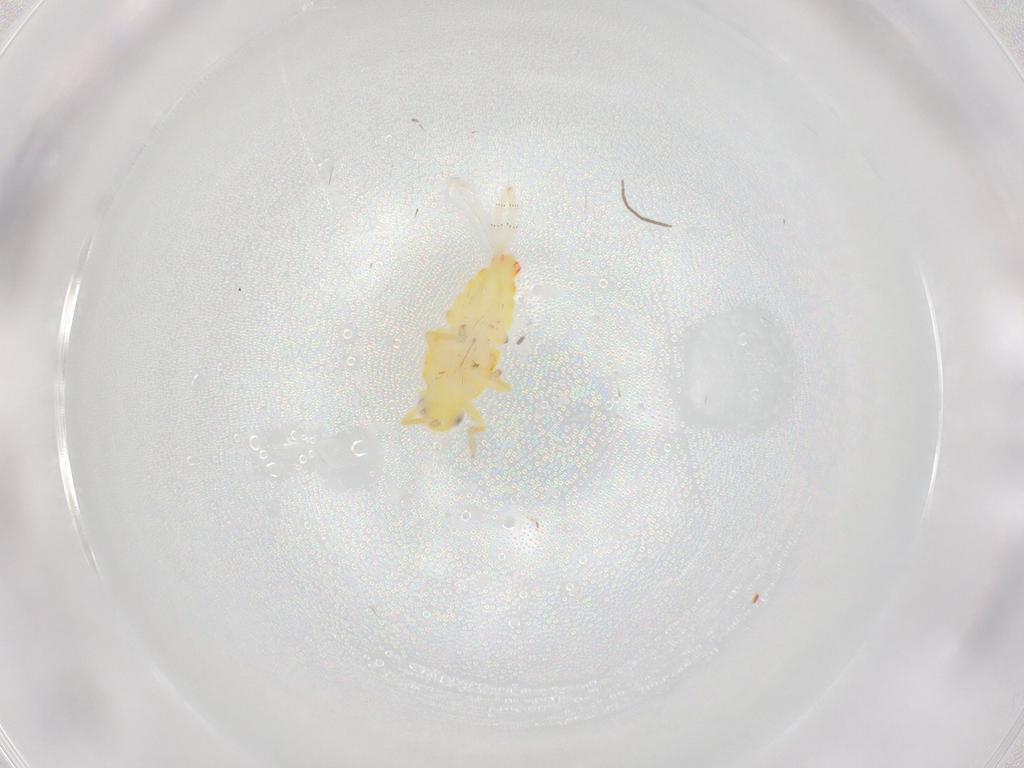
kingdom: Animalia
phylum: Arthropoda
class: Insecta
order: Hemiptera
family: Tropiduchidae
